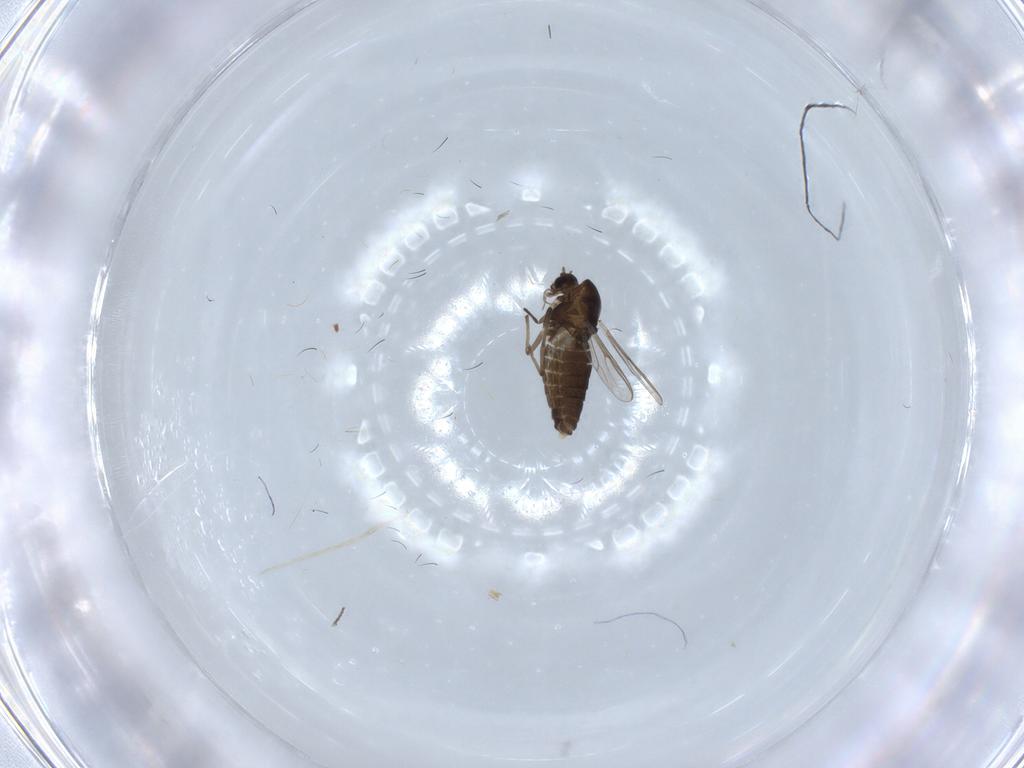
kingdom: Animalia
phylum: Arthropoda
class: Insecta
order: Diptera
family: Chironomidae
